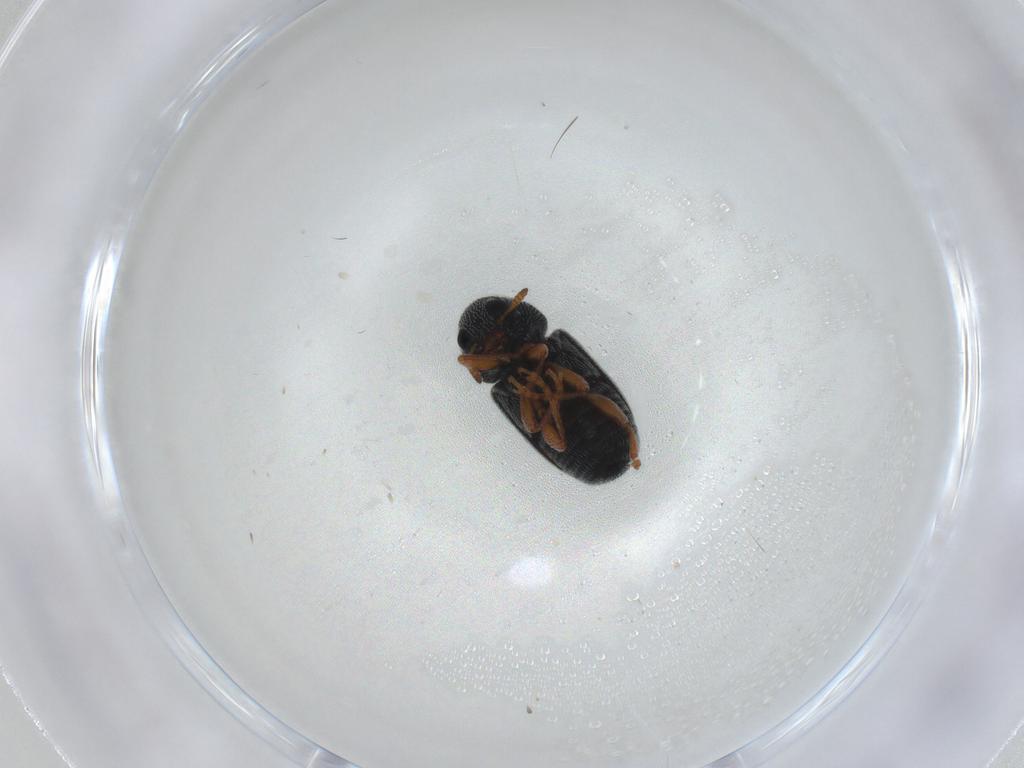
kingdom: Animalia
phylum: Arthropoda
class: Insecta
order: Coleoptera
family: Anthribidae
